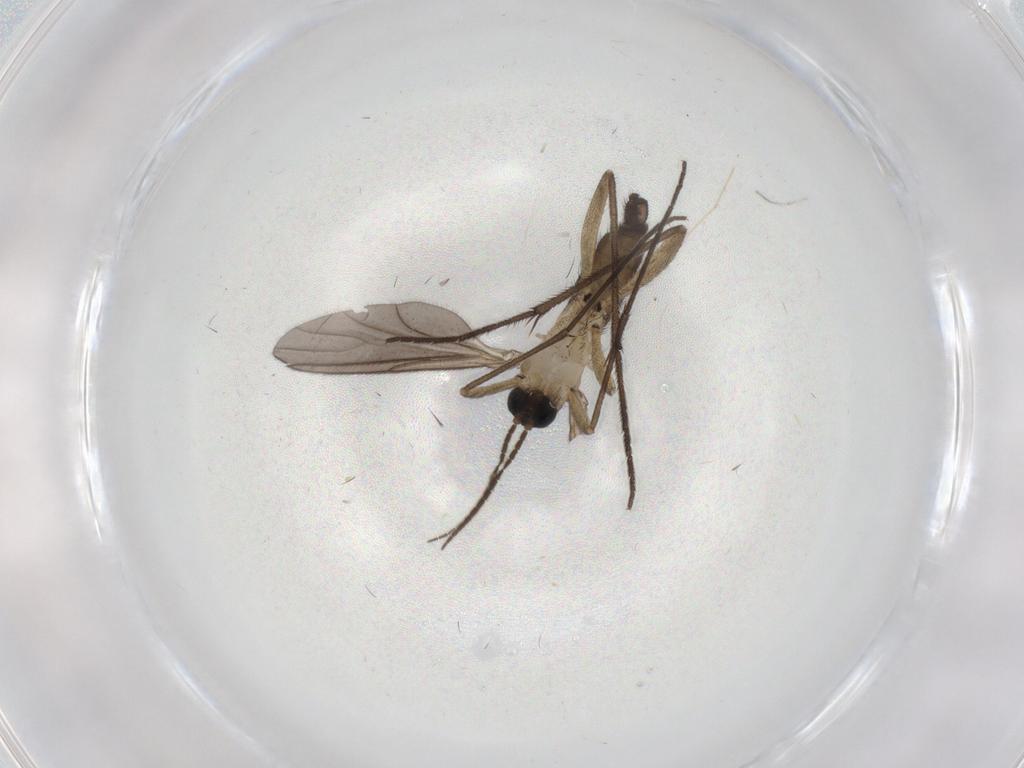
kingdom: Animalia
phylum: Arthropoda
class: Insecta
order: Diptera
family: Sciaridae
